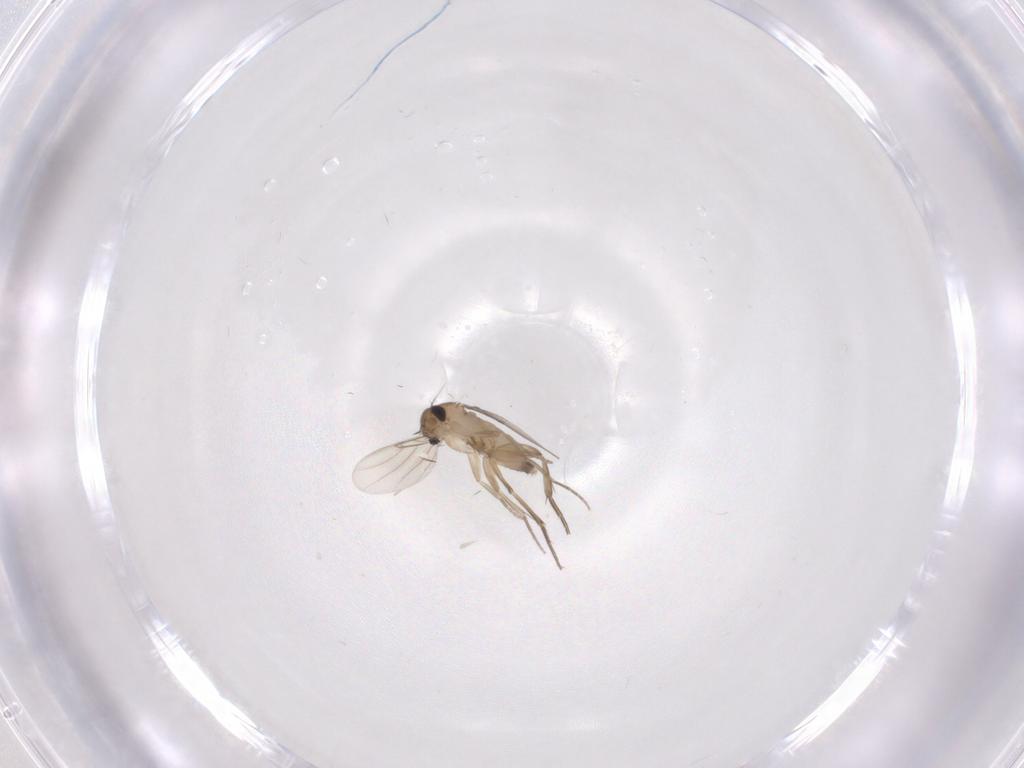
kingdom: Animalia
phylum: Arthropoda
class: Insecta
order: Diptera
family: Phoridae
